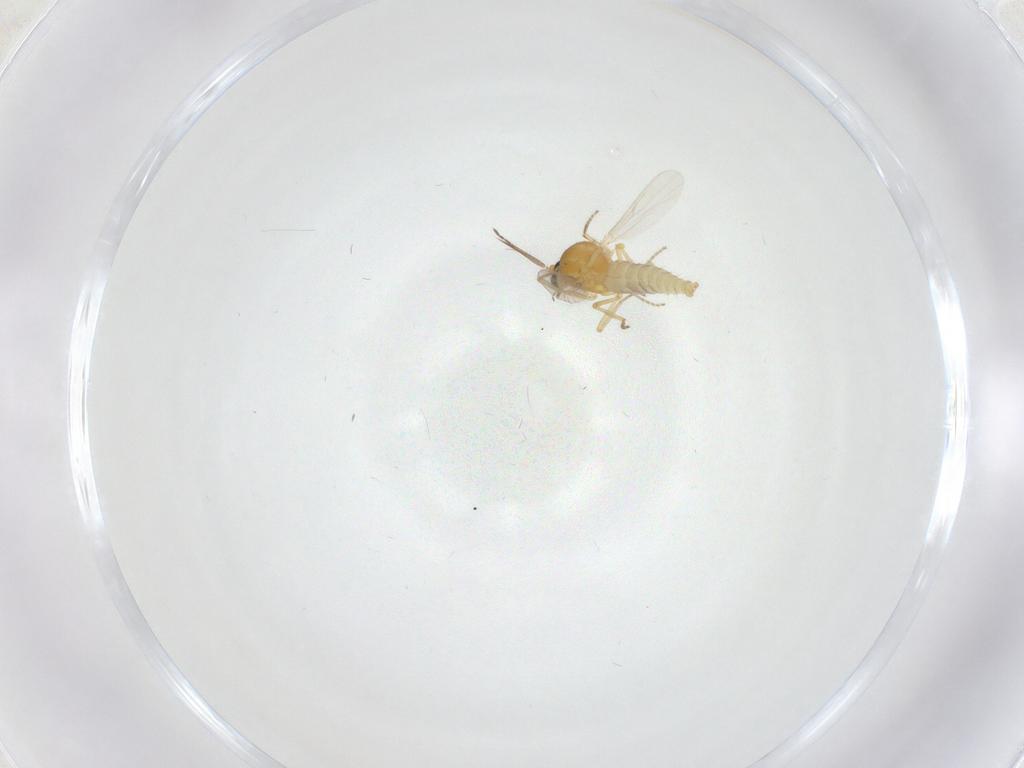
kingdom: Animalia
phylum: Arthropoda
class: Insecta
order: Diptera
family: Ceratopogonidae
